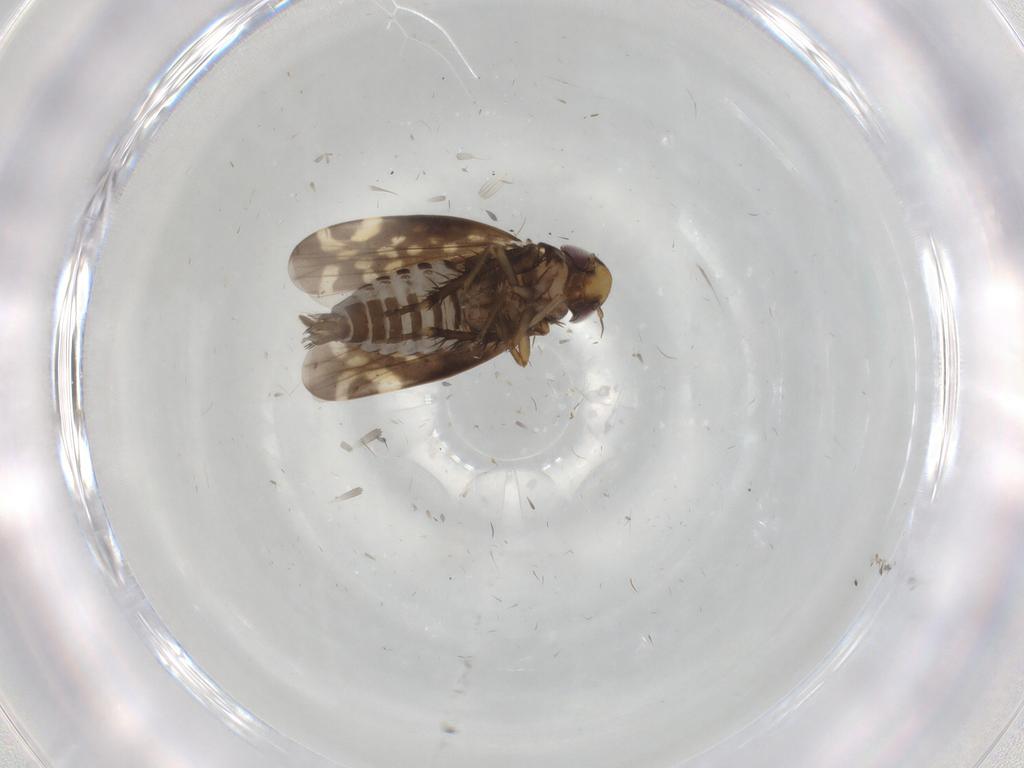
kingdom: Animalia
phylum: Arthropoda
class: Insecta
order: Hemiptera
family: Cicadellidae
